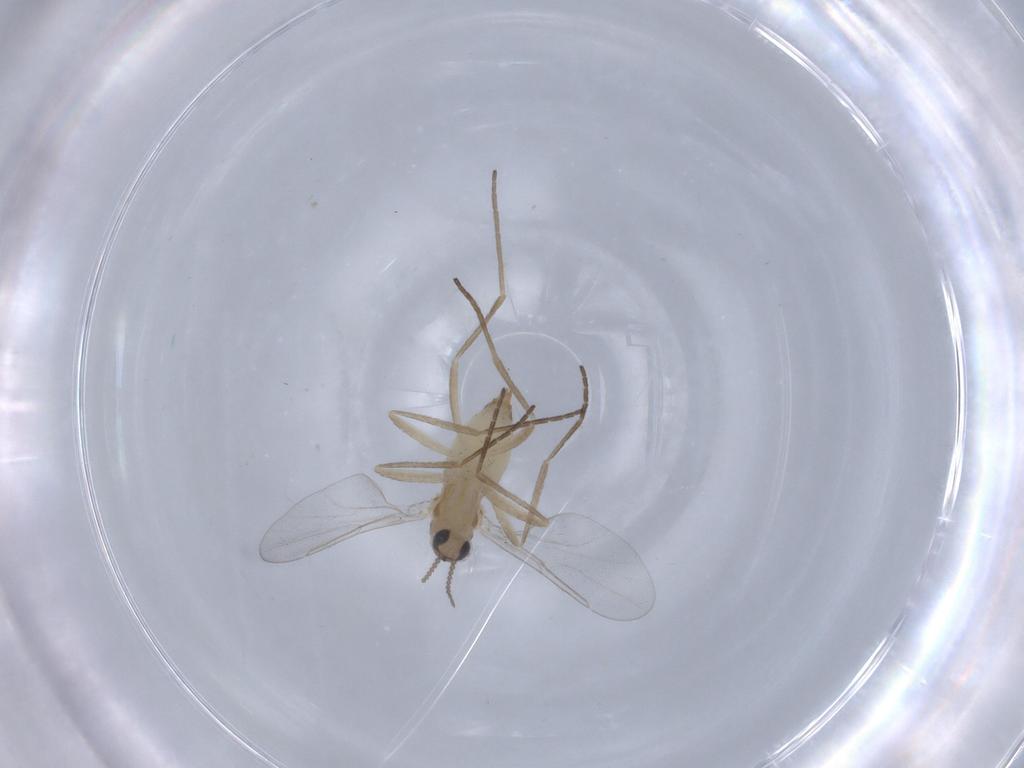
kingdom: Animalia
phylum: Arthropoda
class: Insecta
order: Diptera
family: Cecidomyiidae
